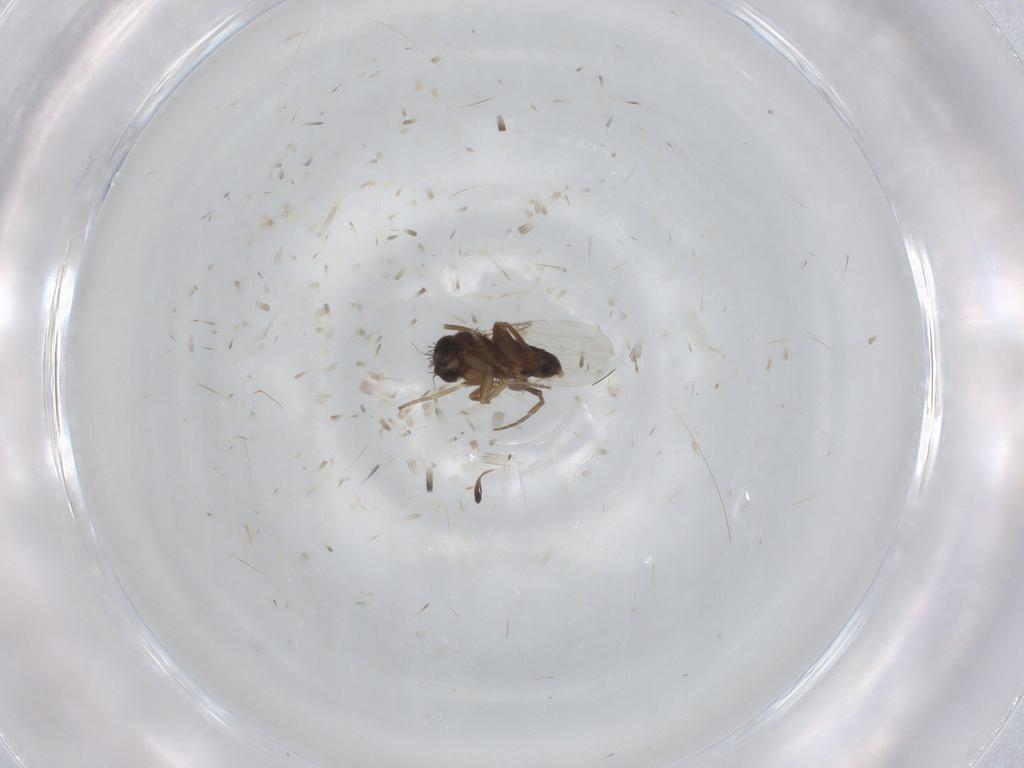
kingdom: Animalia
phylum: Arthropoda
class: Insecta
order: Diptera
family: Phoridae
